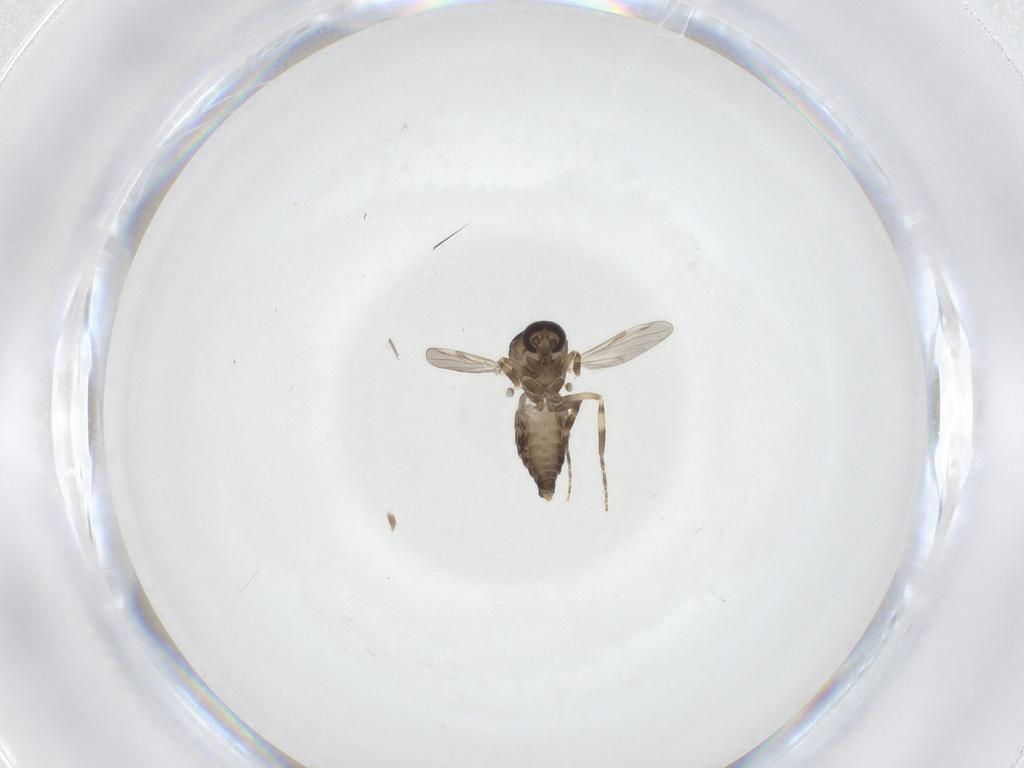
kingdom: Animalia
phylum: Arthropoda
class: Insecta
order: Diptera
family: Ceratopogonidae
